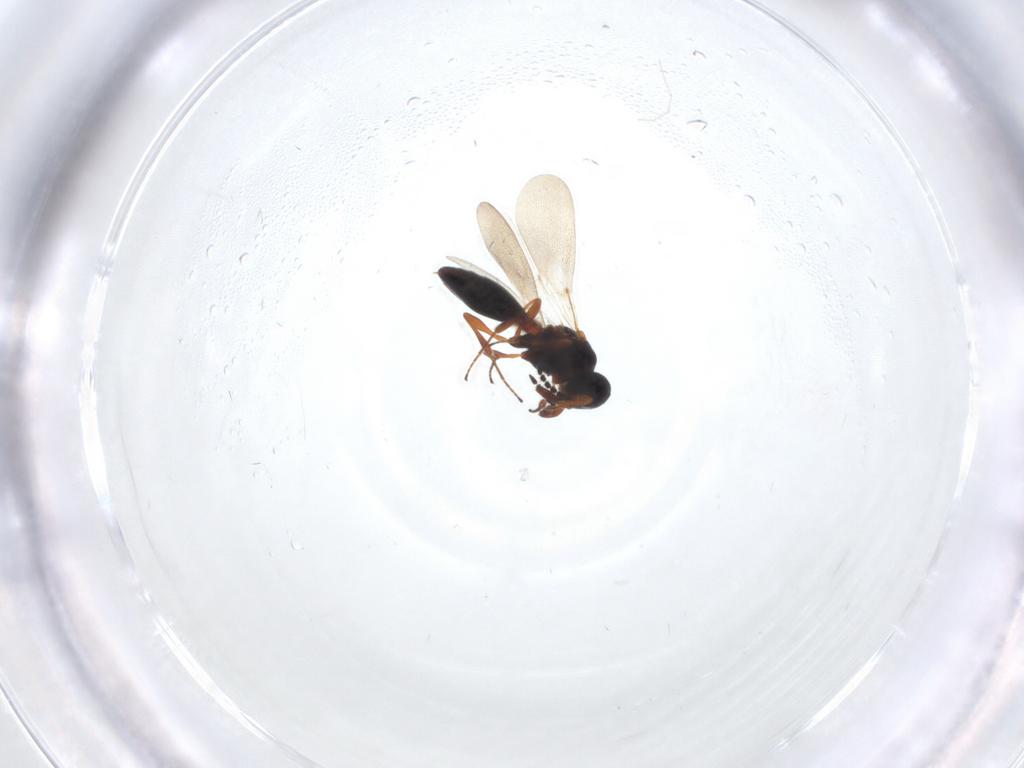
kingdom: Animalia
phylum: Arthropoda
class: Insecta
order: Hymenoptera
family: Platygastridae
